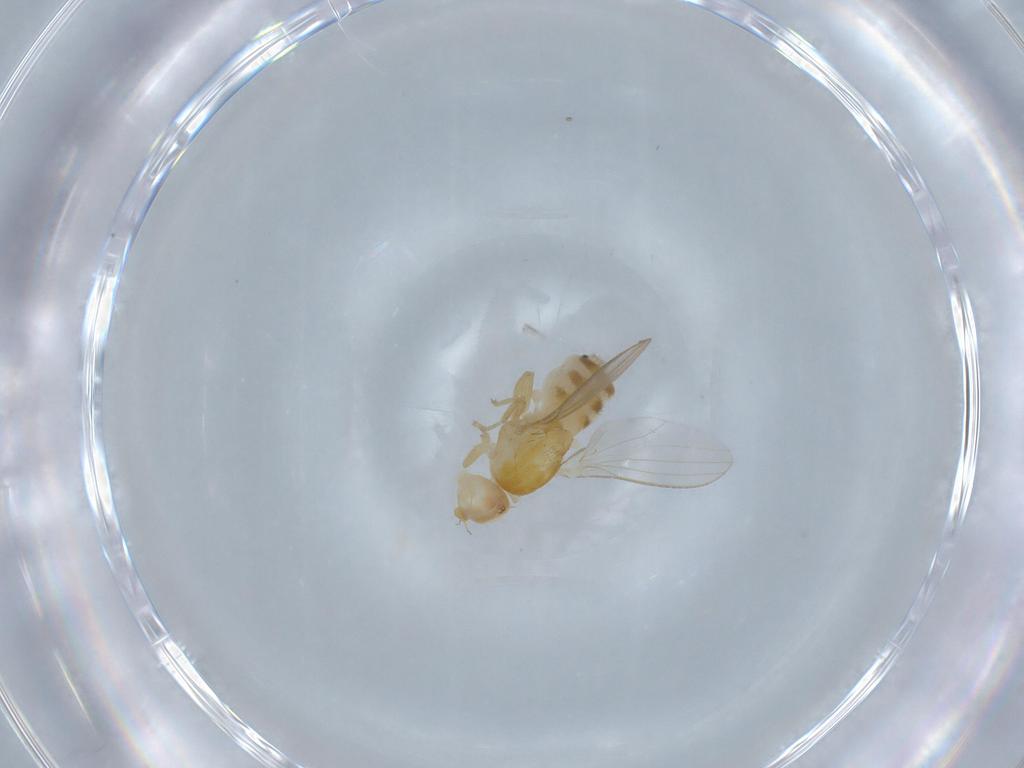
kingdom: Animalia
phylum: Arthropoda
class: Insecta
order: Diptera
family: Chyromyidae
